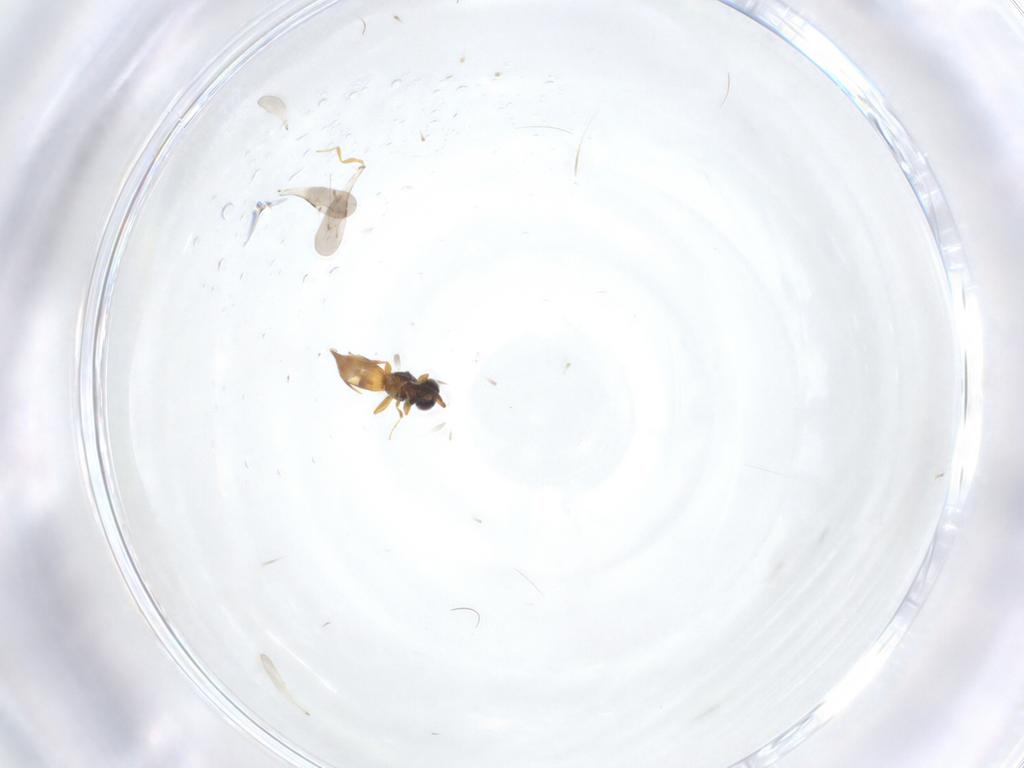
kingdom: Animalia
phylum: Arthropoda
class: Insecta
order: Hymenoptera
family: Ceraphronidae
